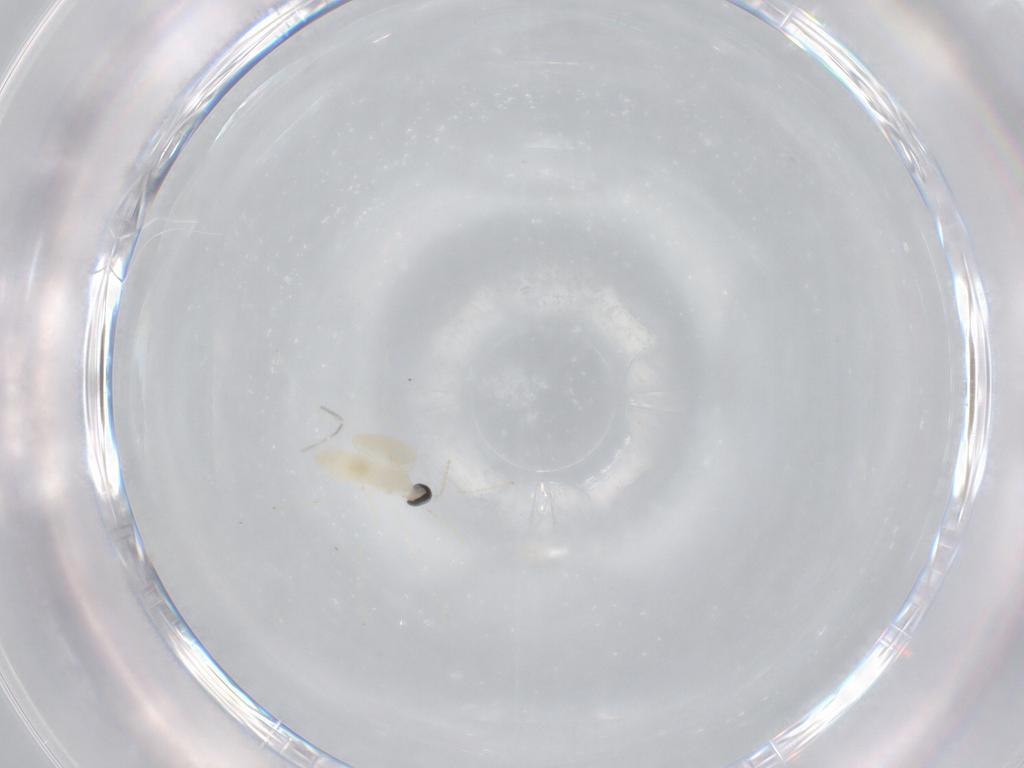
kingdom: Animalia
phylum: Arthropoda
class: Insecta
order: Diptera
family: Cecidomyiidae
